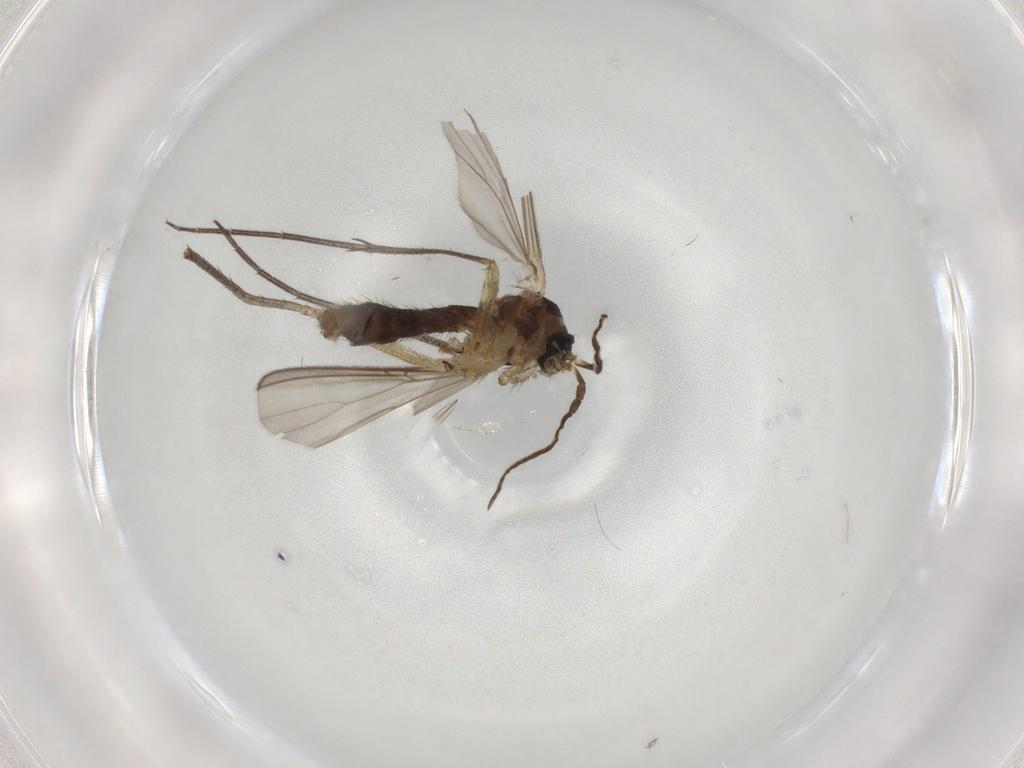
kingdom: Animalia
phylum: Arthropoda
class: Insecta
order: Diptera
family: Mycetophilidae
